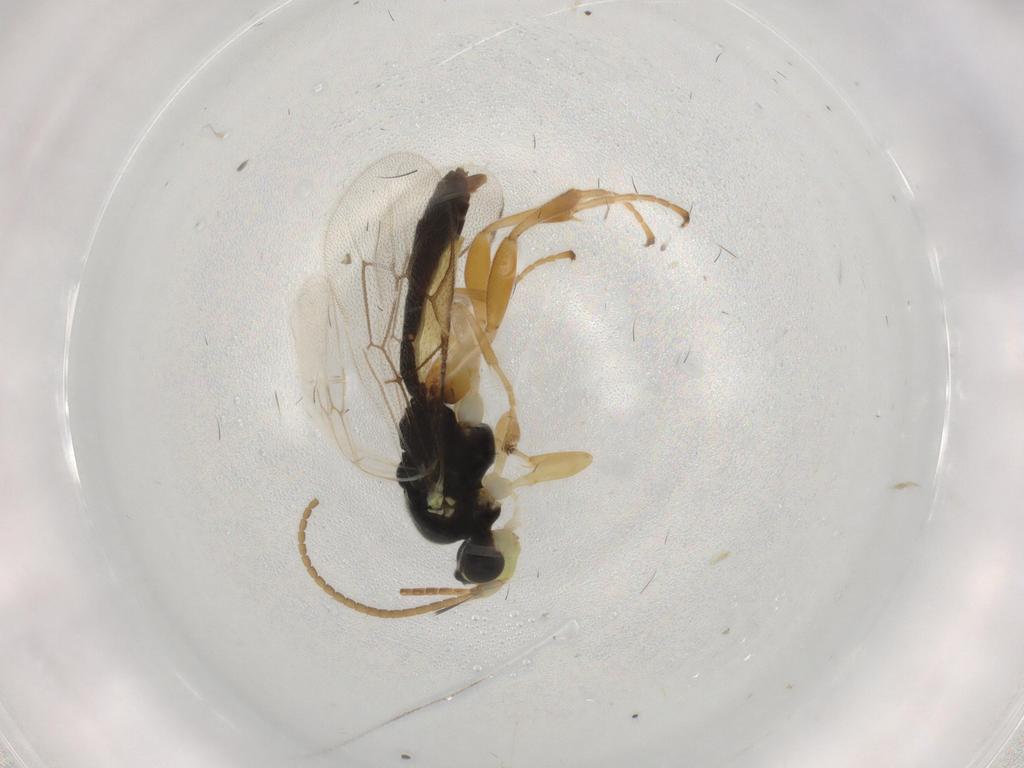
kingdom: Animalia
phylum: Arthropoda
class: Insecta
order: Hymenoptera
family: Ichneumonidae
